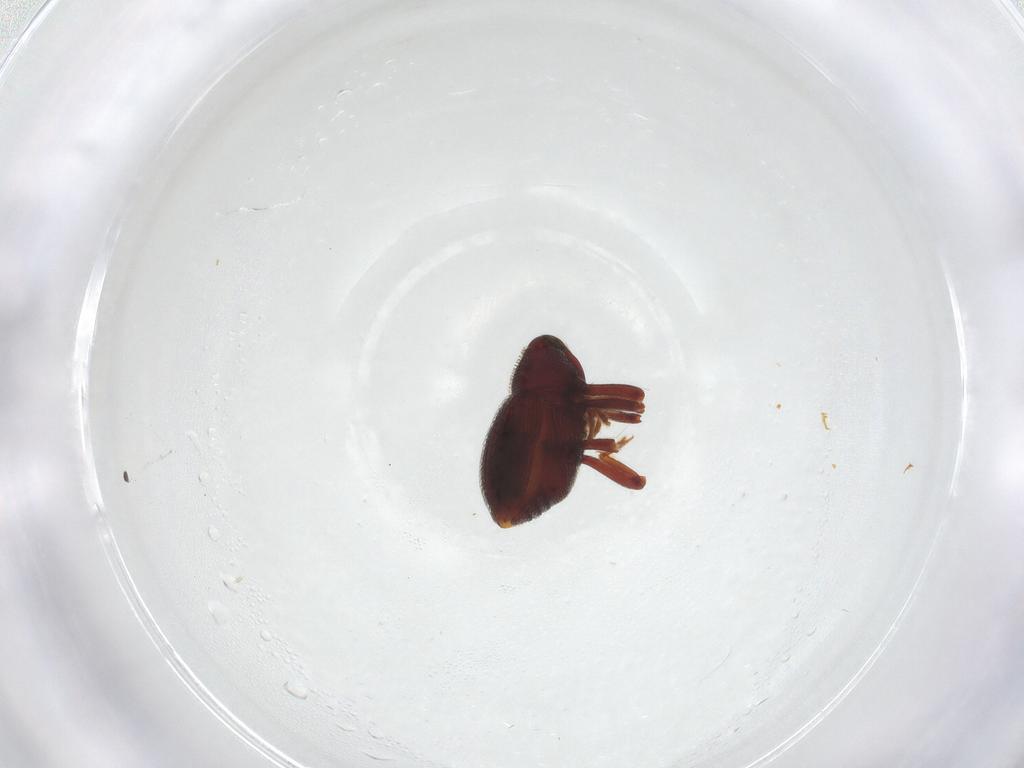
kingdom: Animalia
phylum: Arthropoda
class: Insecta
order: Coleoptera
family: Curculionidae
